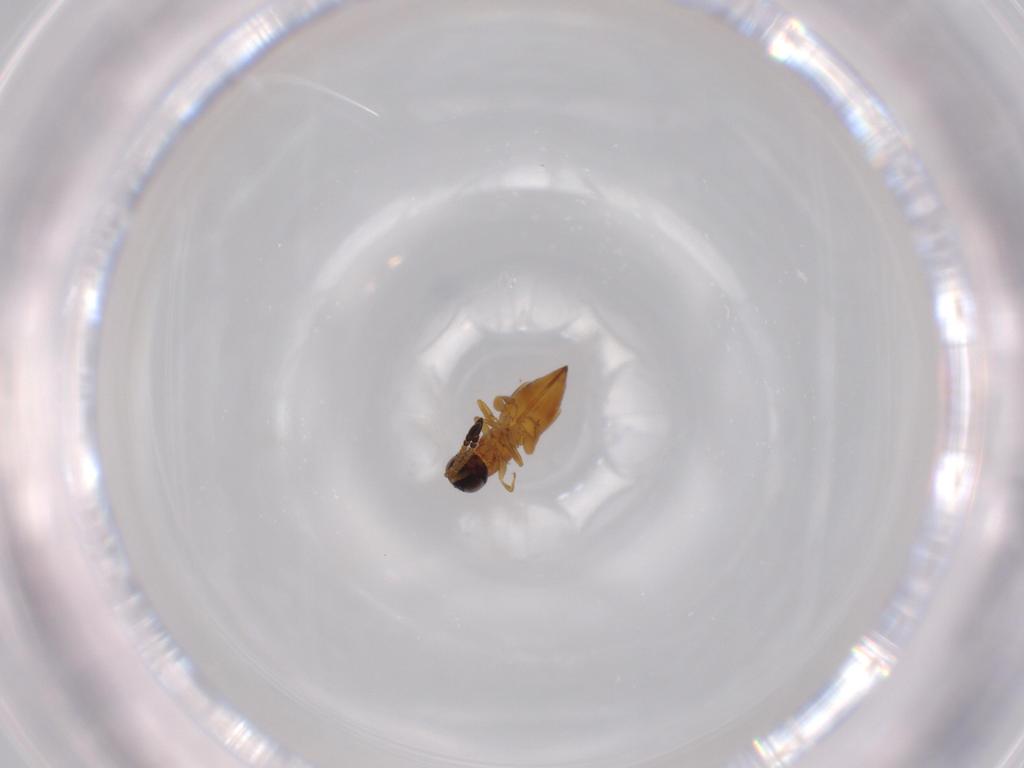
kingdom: Animalia
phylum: Arthropoda
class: Insecta
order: Hymenoptera
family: Ceraphronidae
